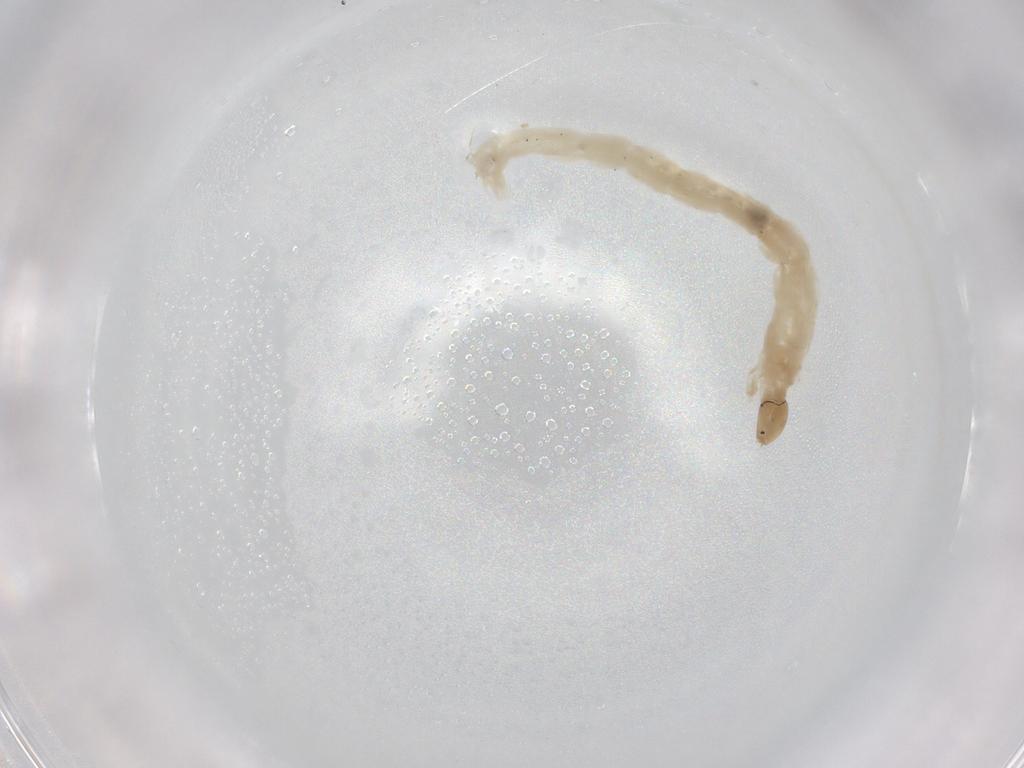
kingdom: Animalia
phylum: Arthropoda
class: Insecta
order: Diptera
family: Chironomidae
